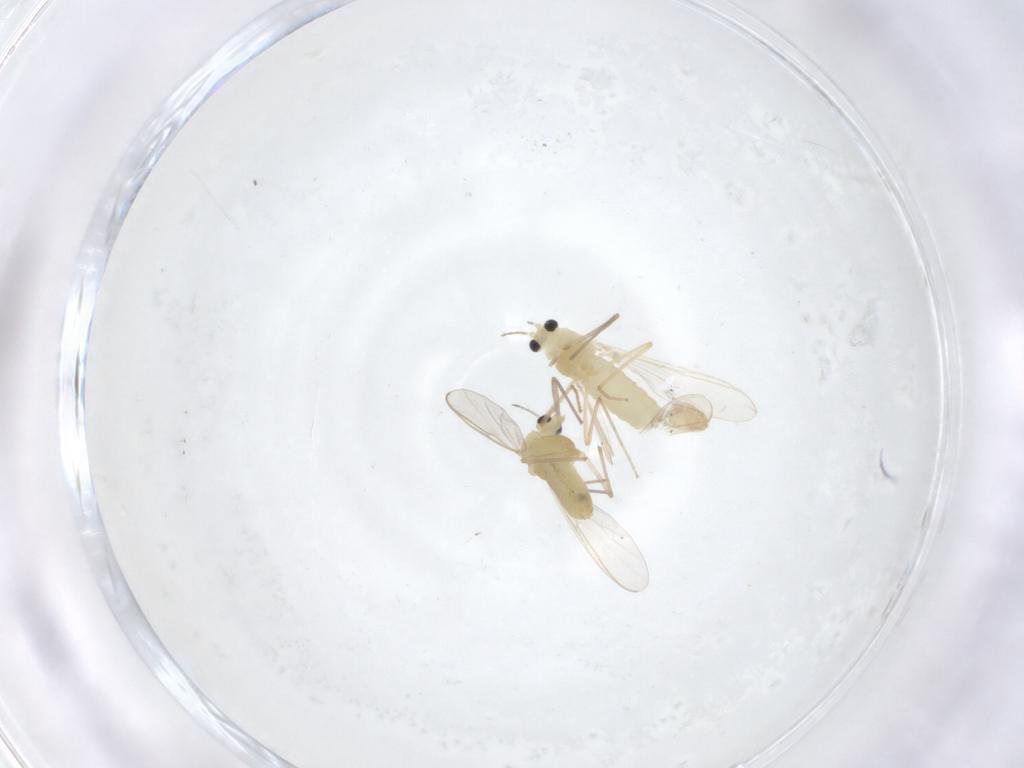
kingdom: Animalia
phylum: Arthropoda
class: Insecta
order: Diptera
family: Chironomidae
